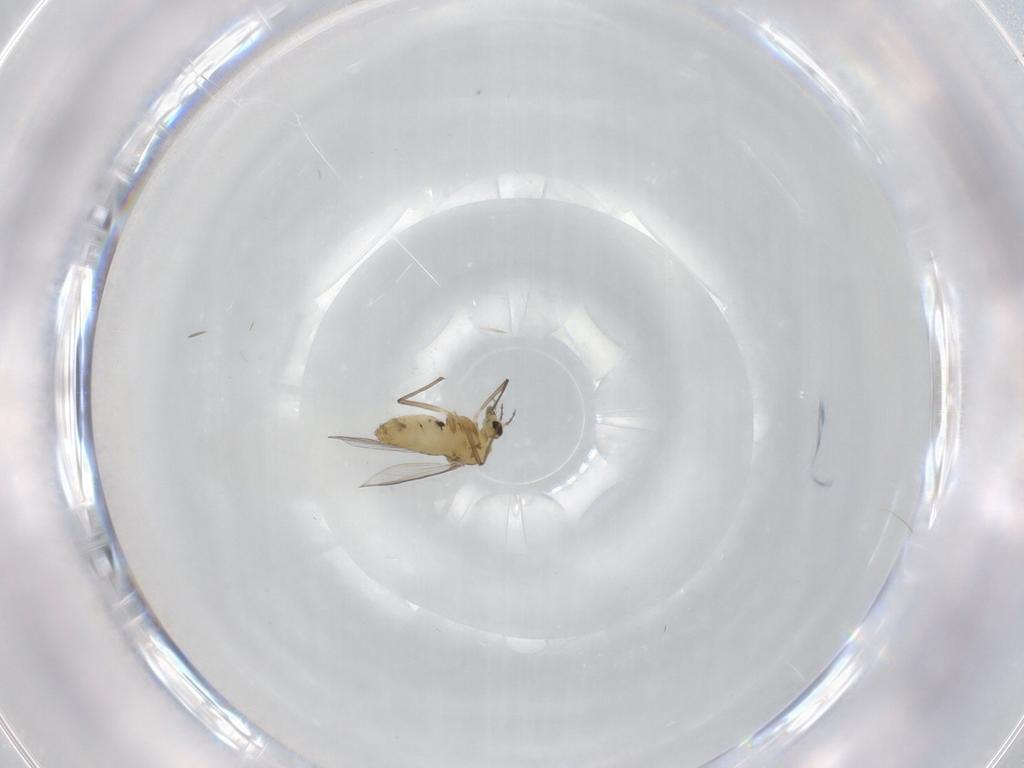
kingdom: Animalia
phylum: Arthropoda
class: Insecta
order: Diptera
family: Chironomidae
